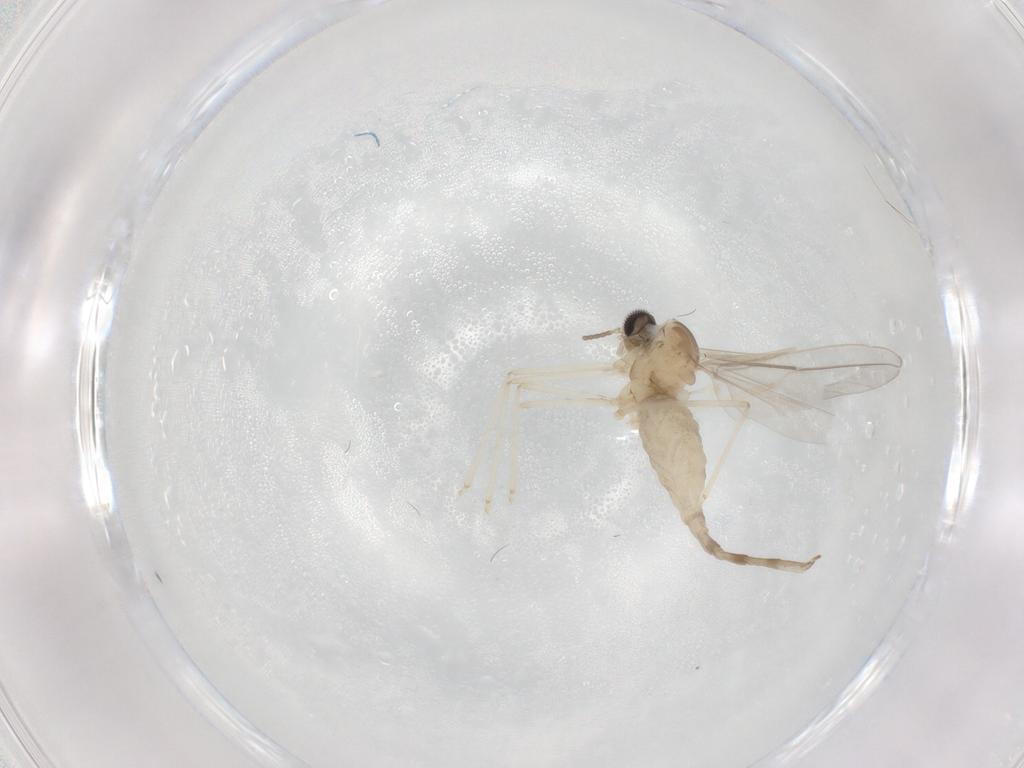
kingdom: Animalia
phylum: Arthropoda
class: Insecta
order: Diptera
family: Cecidomyiidae
